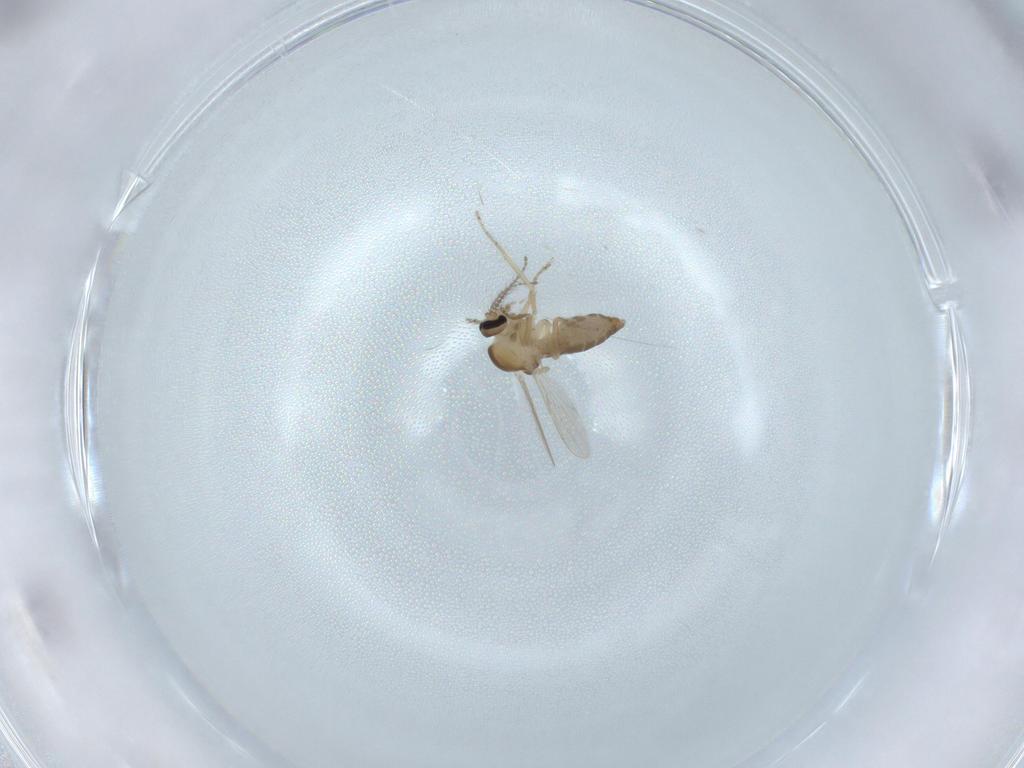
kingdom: Animalia
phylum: Arthropoda
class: Insecta
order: Diptera
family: Ceratopogonidae
